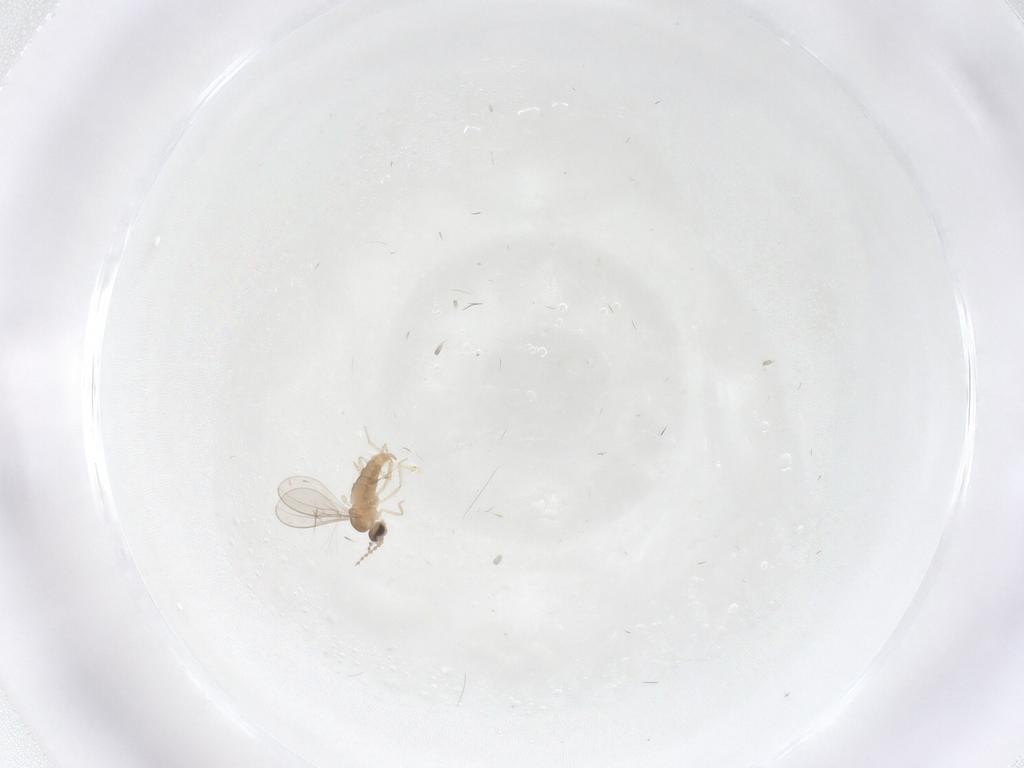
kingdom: Animalia
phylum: Arthropoda
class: Insecta
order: Diptera
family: Cecidomyiidae
